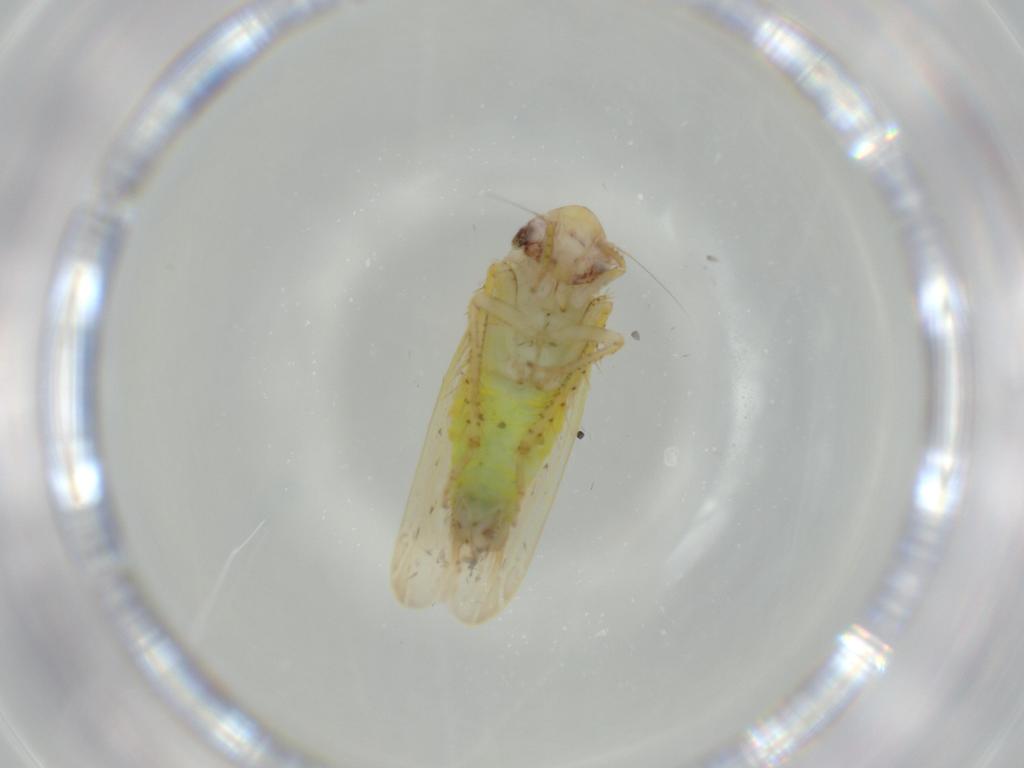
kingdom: Animalia
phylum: Arthropoda
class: Insecta
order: Hemiptera
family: Cicadellidae
